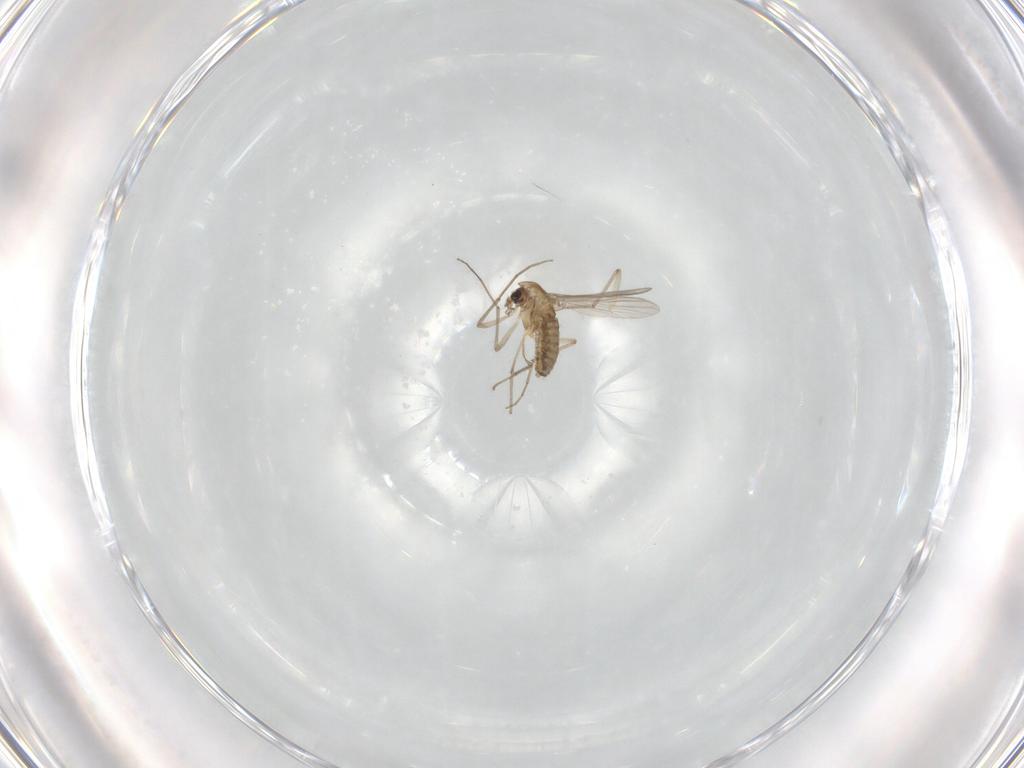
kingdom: Animalia
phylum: Arthropoda
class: Insecta
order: Diptera
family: Chironomidae
